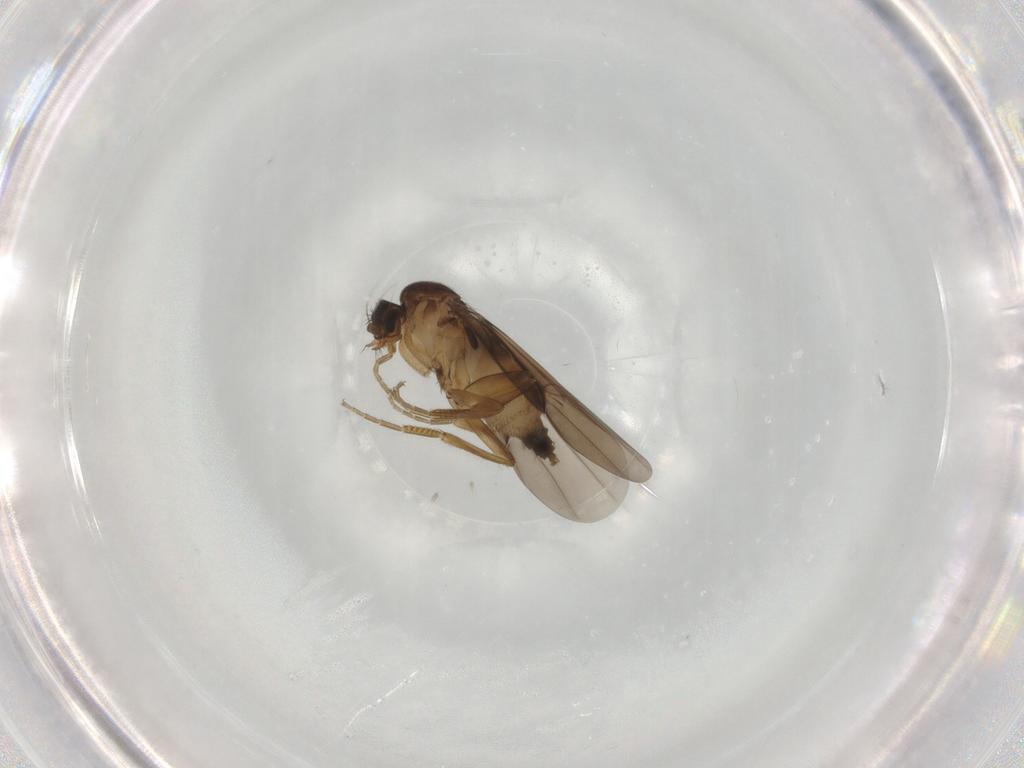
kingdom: Animalia
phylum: Arthropoda
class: Insecta
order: Diptera
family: Phoridae
